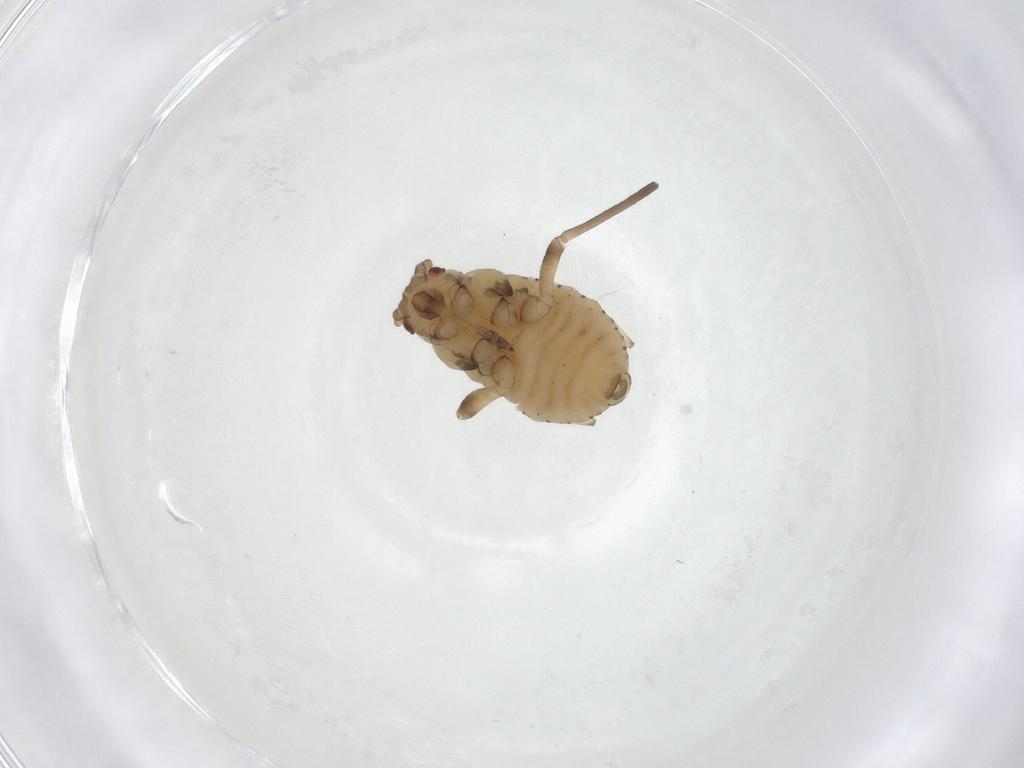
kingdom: Animalia
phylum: Arthropoda
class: Insecta
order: Hemiptera
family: Aphididae
